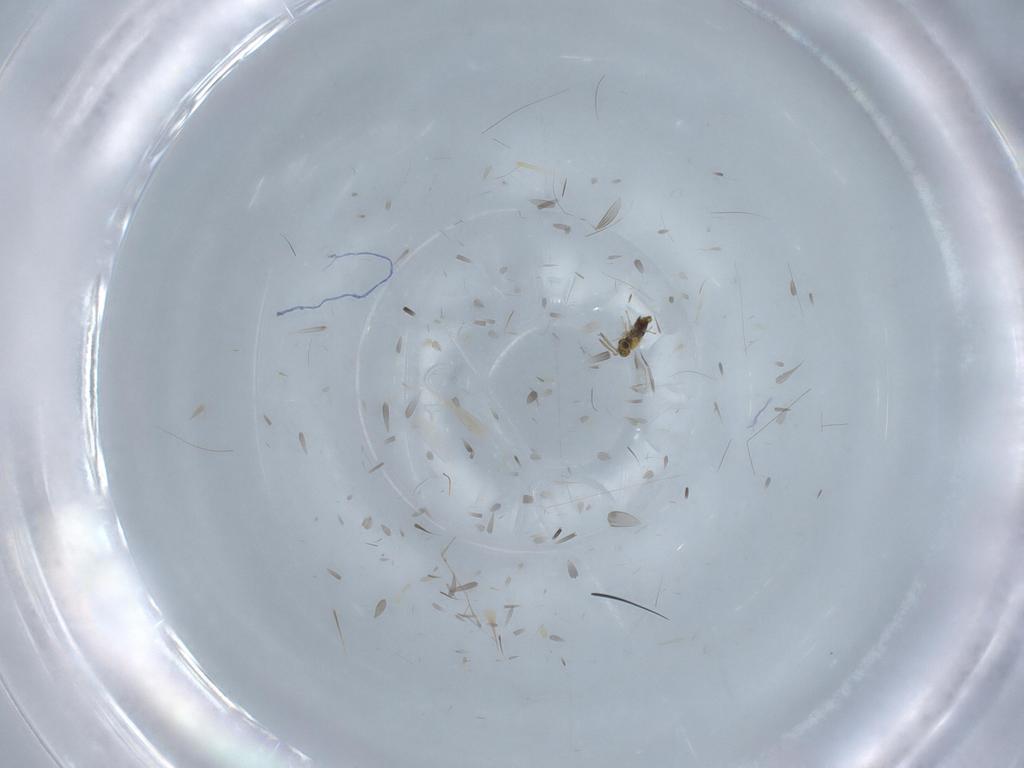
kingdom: Animalia
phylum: Arthropoda
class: Insecta
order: Diptera
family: Cecidomyiidae
